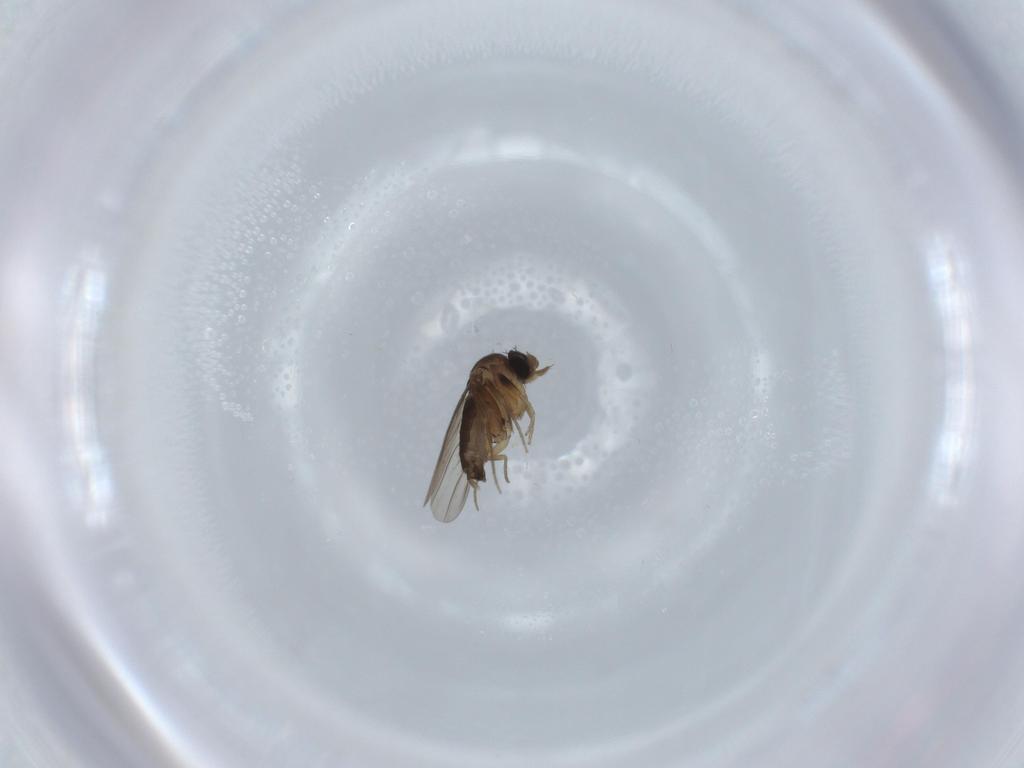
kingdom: Animalia
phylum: Arthropoda
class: Insecta
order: Diptera
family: Phoridae
